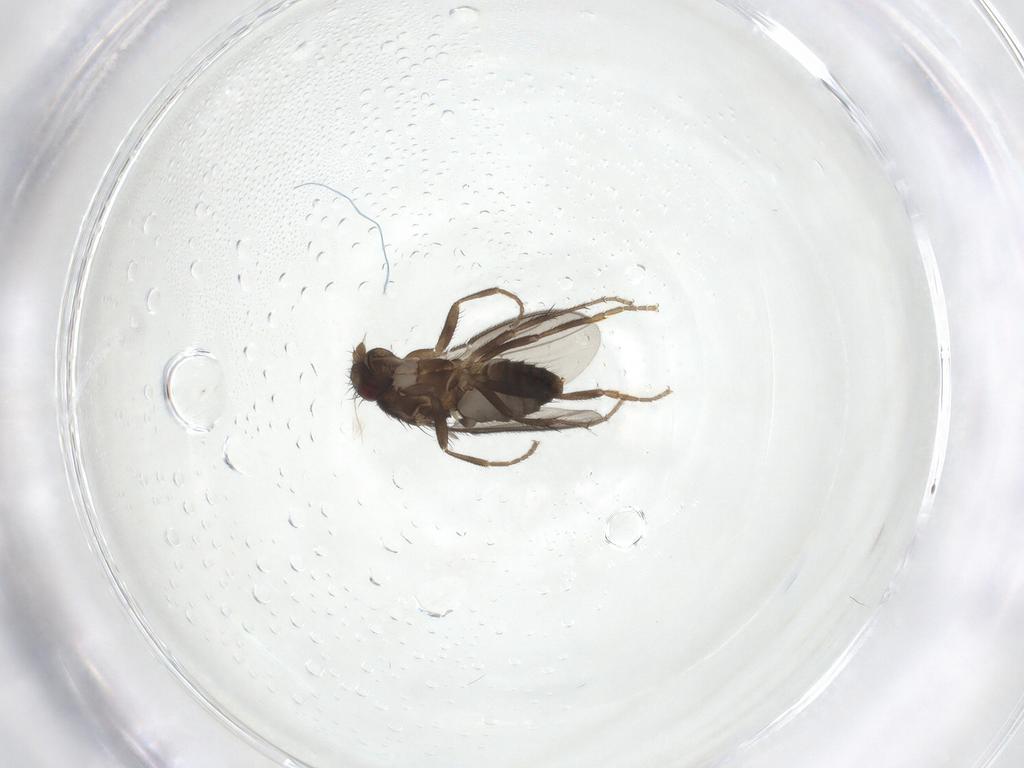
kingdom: Animalia
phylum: Arthropoda
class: Insecta
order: Diptera
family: Sphaeroceridae
